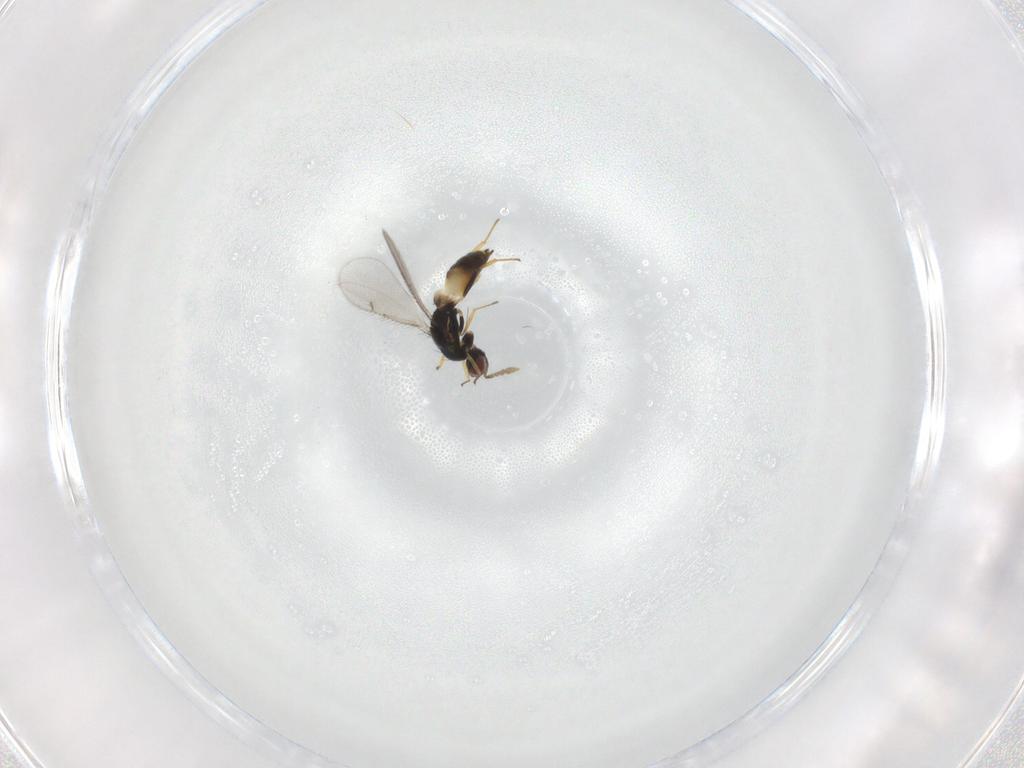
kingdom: Animalia
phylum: Arthropoda
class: Insecta
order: Hymenoptera
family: Eulophidae
